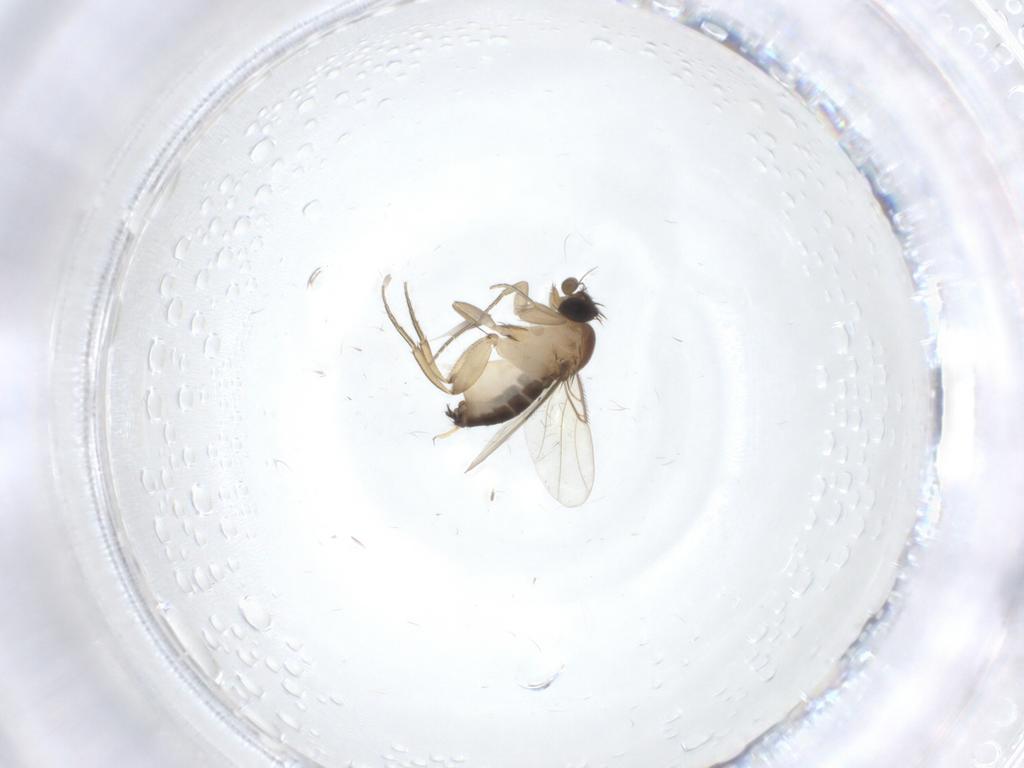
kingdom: Animalia
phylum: Arthropoda
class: Insecta
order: Diptera
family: Phoridae
